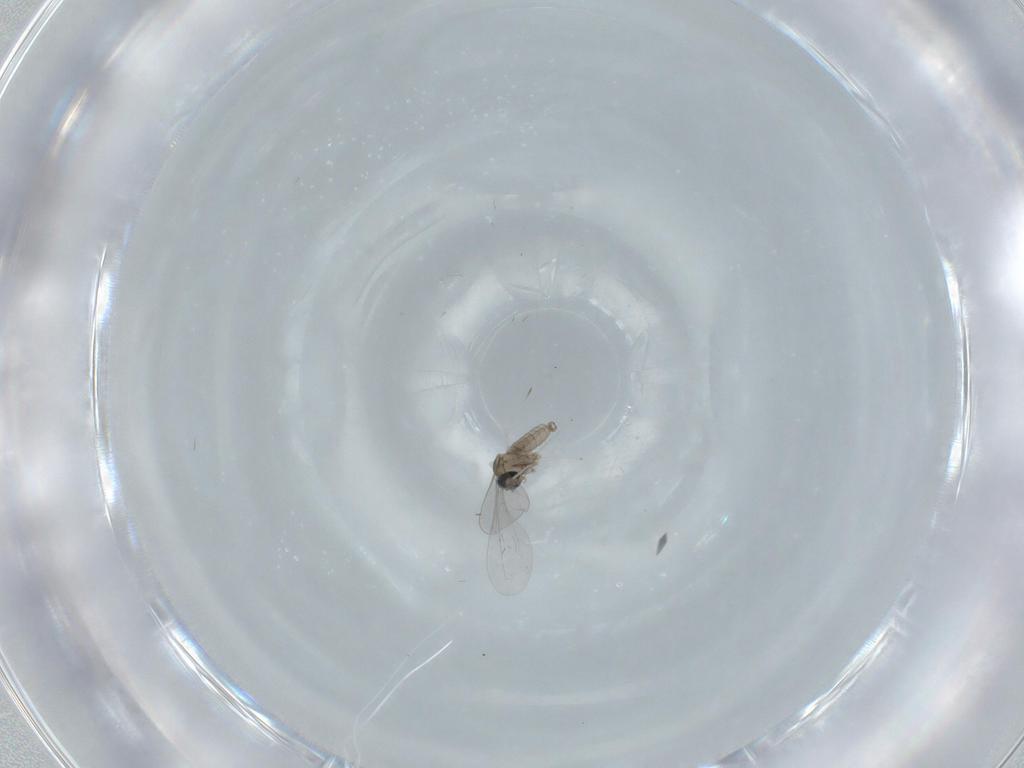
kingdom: Animalia
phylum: Arthropoda
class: Insecta
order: Diptera
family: Cecidomyiidae
